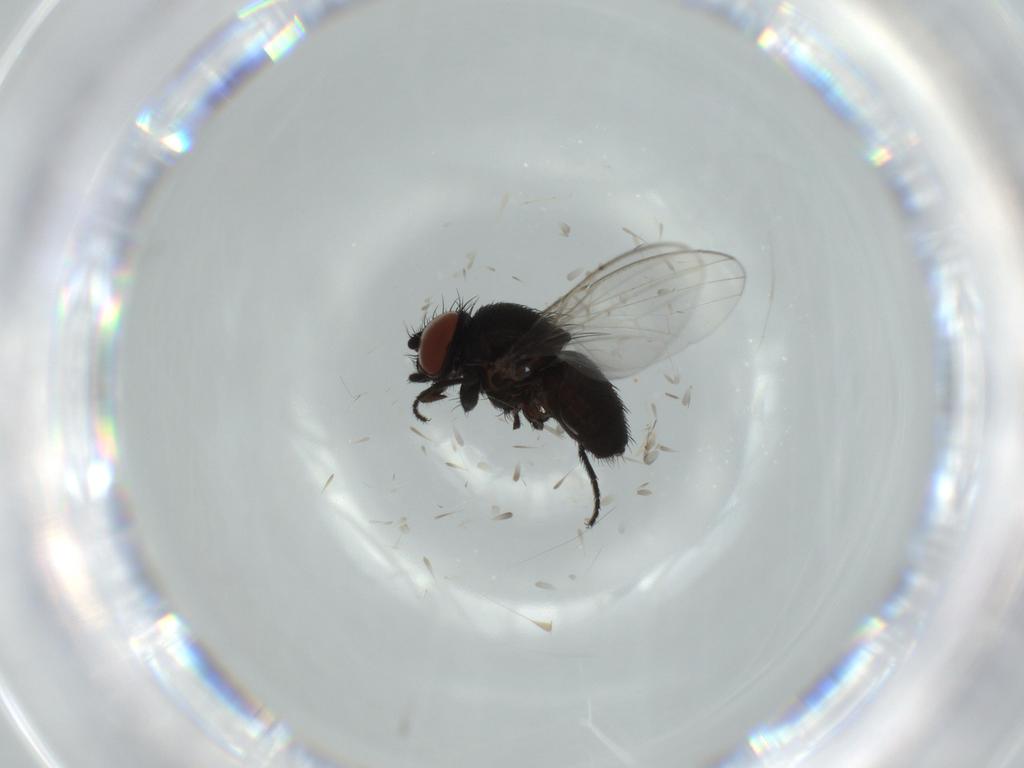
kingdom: Animalia
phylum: Arthropoda
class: Insecta
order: Diptera
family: Milichiidae
